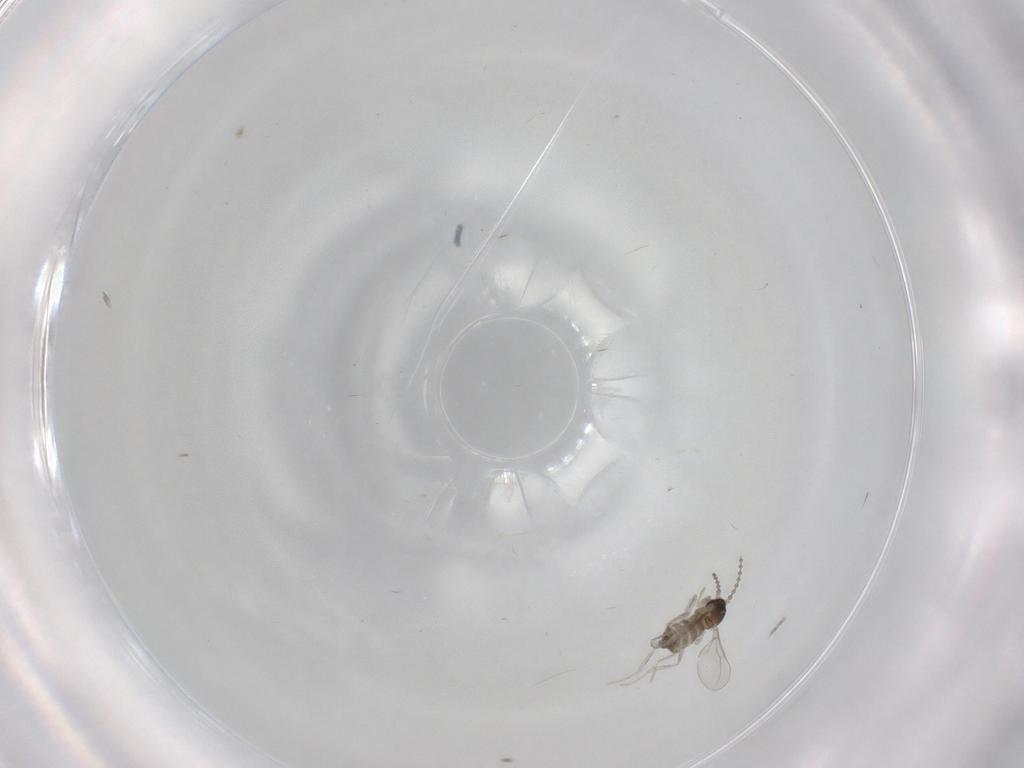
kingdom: Animalia
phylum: Arthropoda
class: Insecta
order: Diptera
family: Cecidomyiidae
